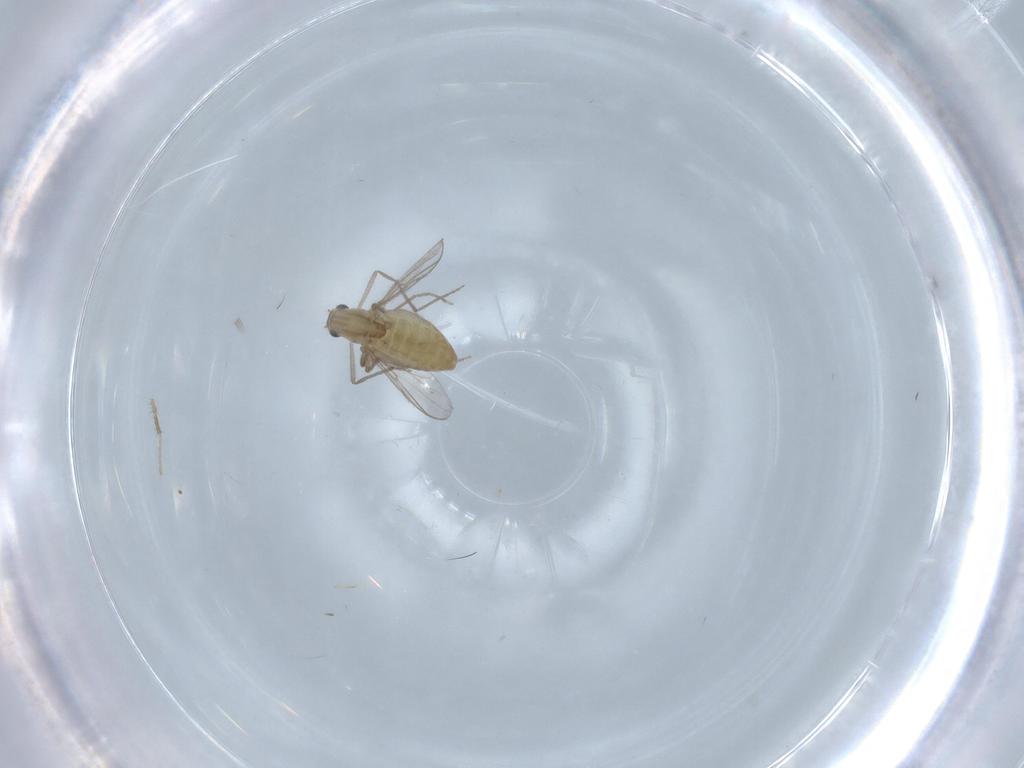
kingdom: Animalia
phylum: Arthropoda
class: Insecta
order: Diptera
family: Chironomidae
